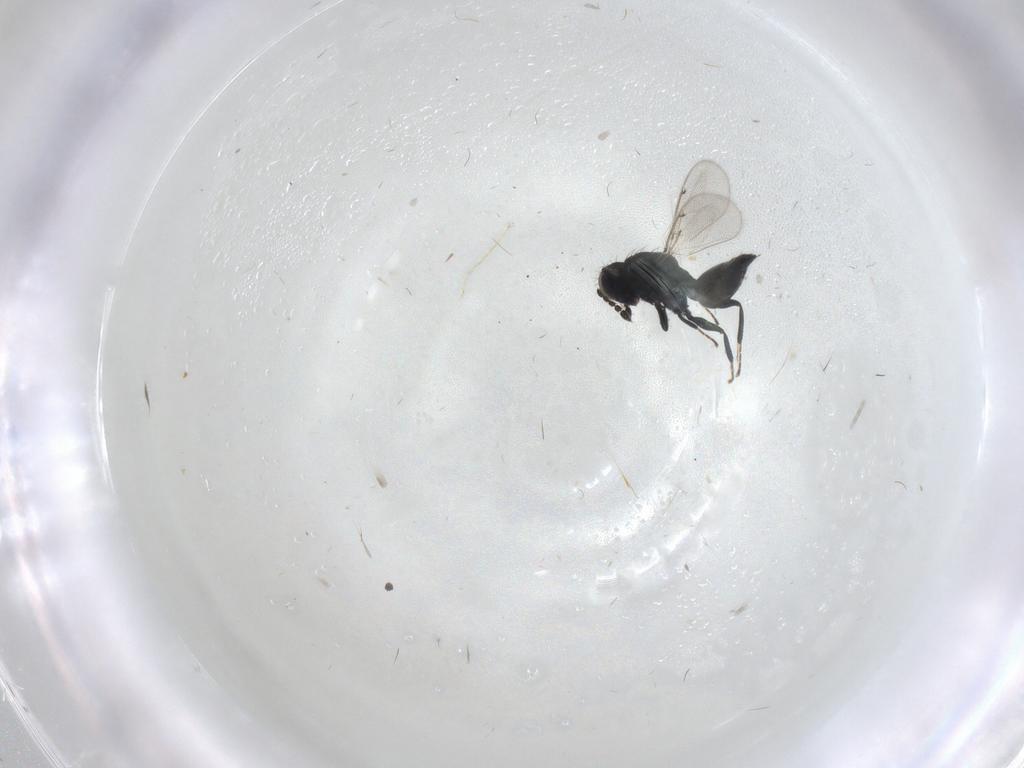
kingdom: Animalia
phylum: Arthropoda
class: Insecta
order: Hymenoptera
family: Eulophidae
